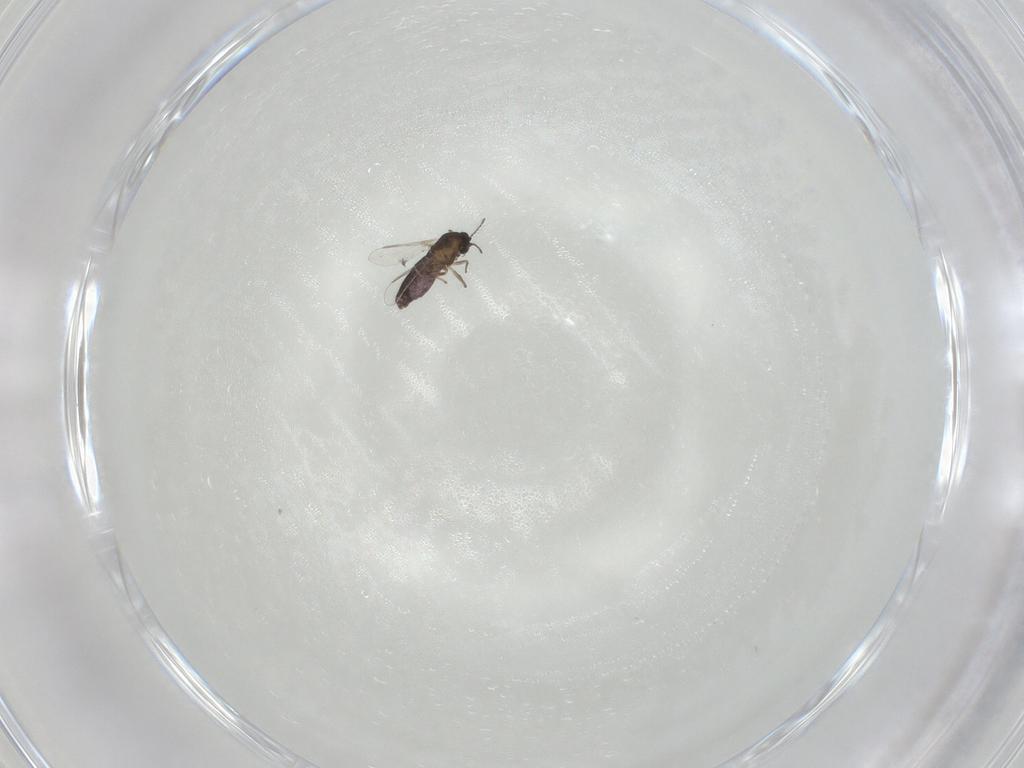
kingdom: Animalia
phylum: Arthropoda
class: Insecta
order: Diptera
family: Chironomidae
